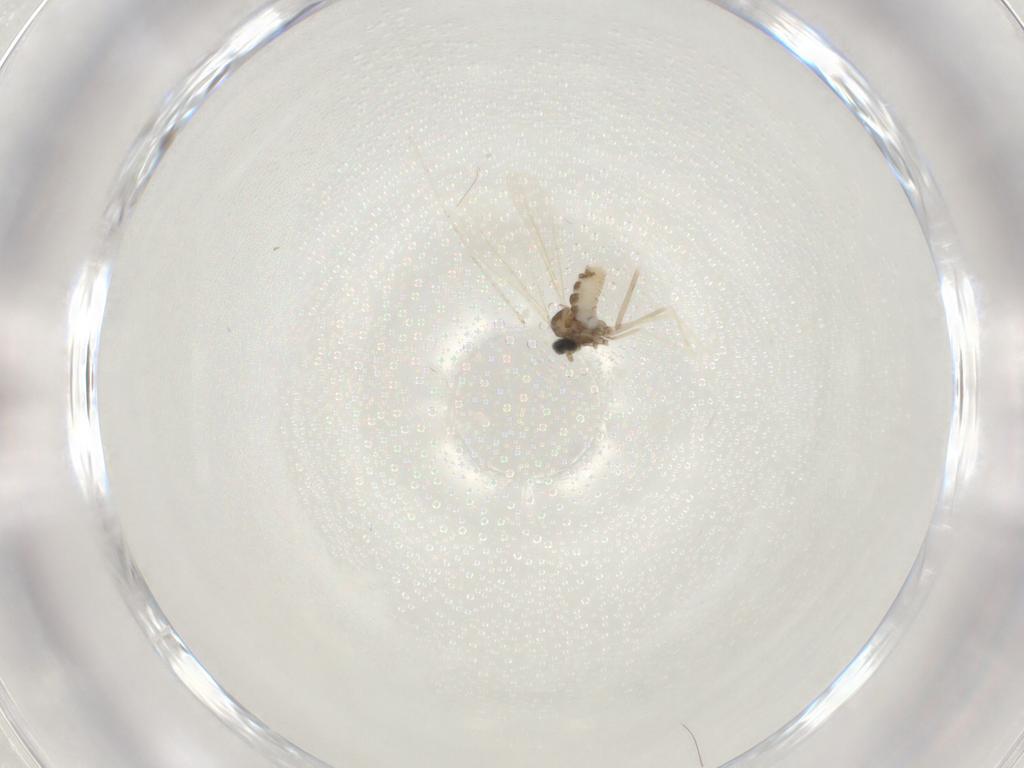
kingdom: Animalia
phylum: Arthropoda
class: Insecta
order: Diptera
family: Cecidomyiidae
